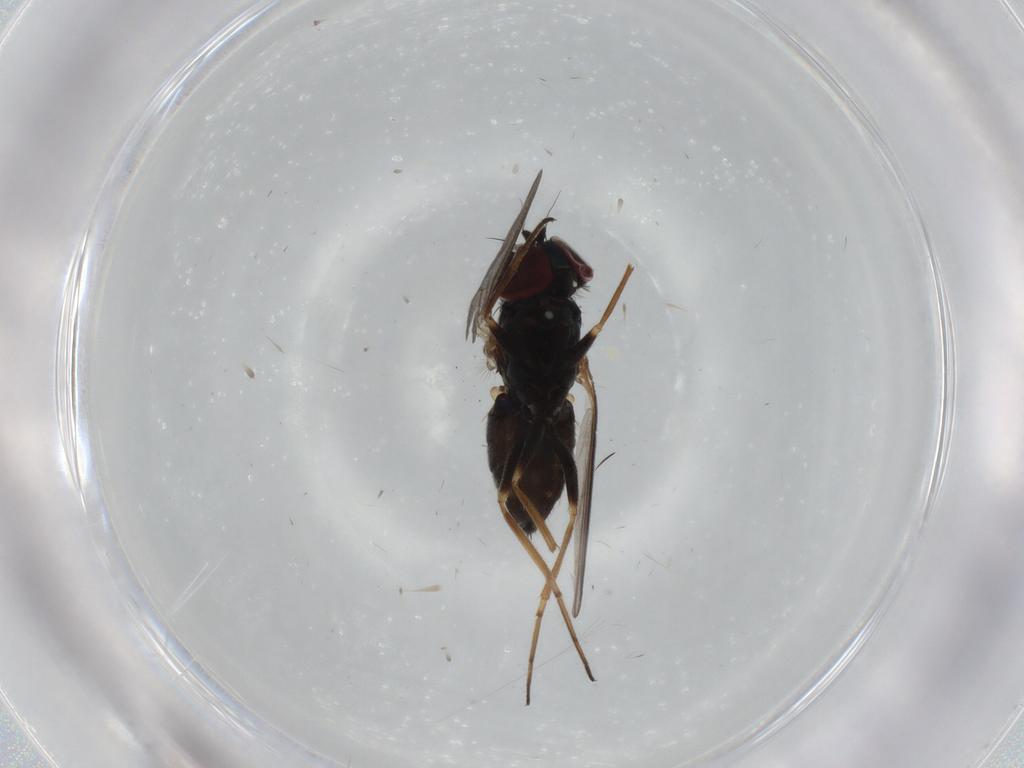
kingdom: Animalia
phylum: Arthropoda
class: Insecta
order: Diptera
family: Dolichopodidae
